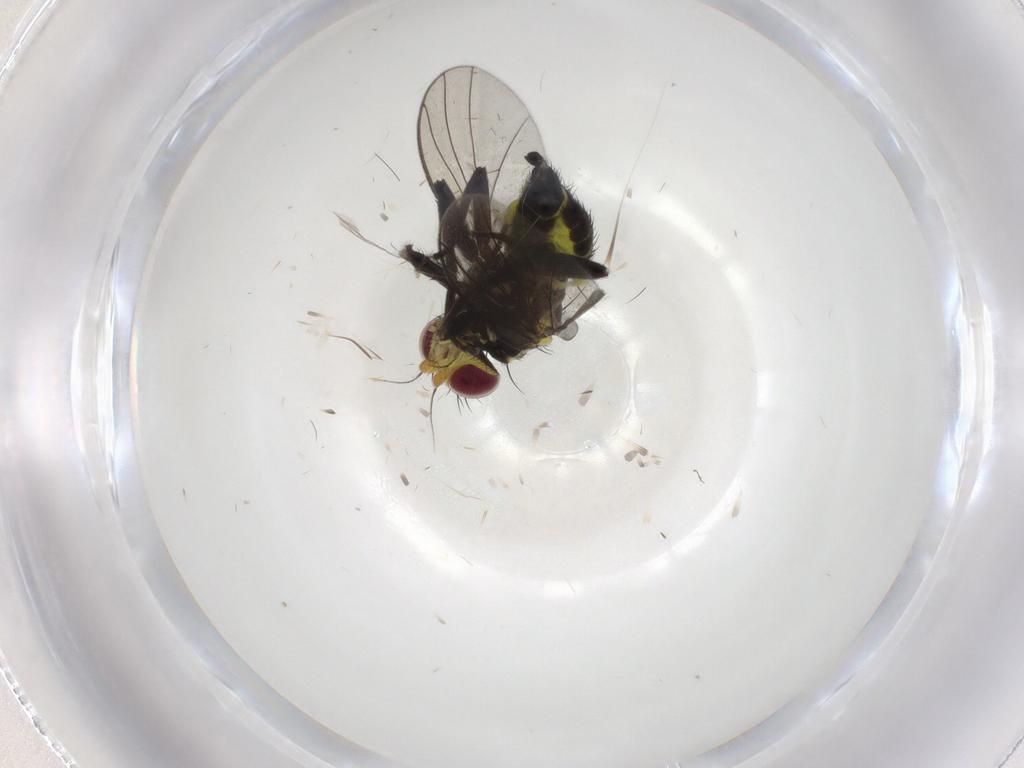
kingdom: Animalia
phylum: Arthropoda
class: Insecta
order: Diptera
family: Agromyzidae
